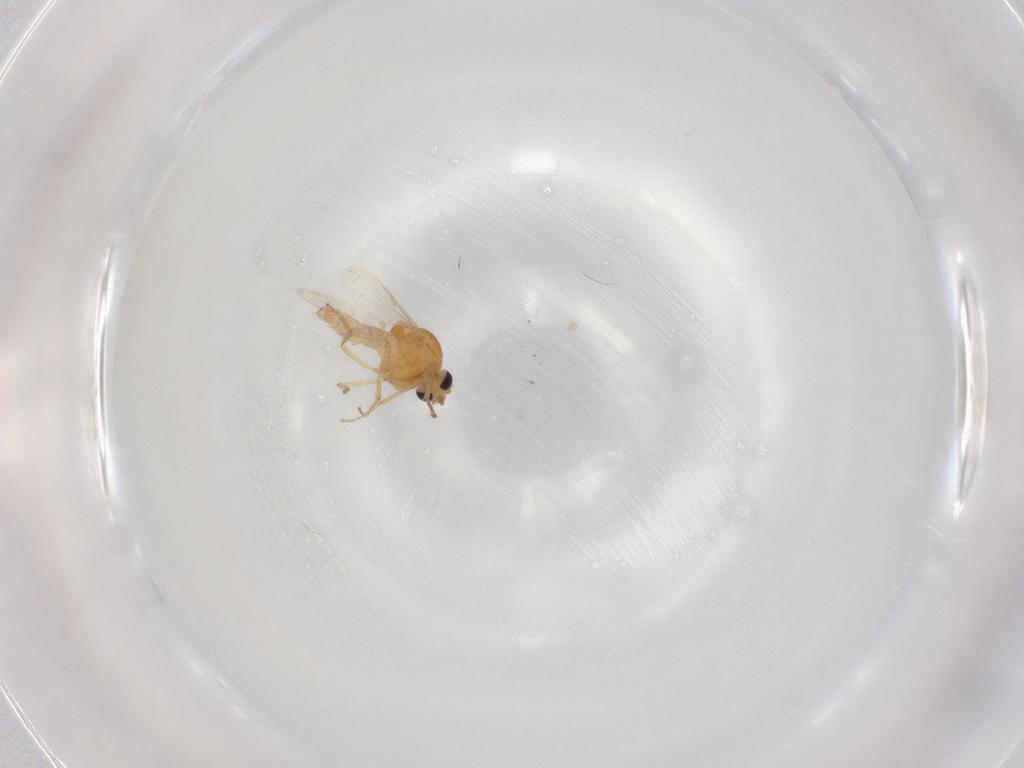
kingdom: Animalia
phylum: Arthropoda
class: Insecta
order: Diptera
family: Ceratopogonidae
